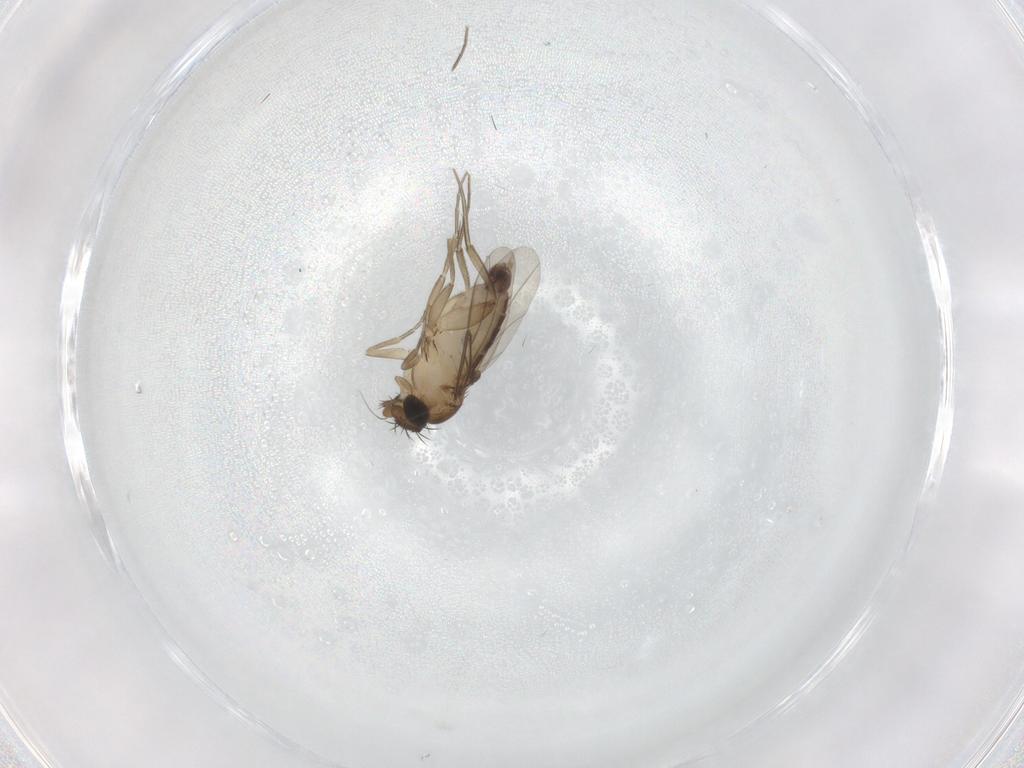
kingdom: Animalia
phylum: Arthropoda
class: Insecta
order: Diptera
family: Phoridae
